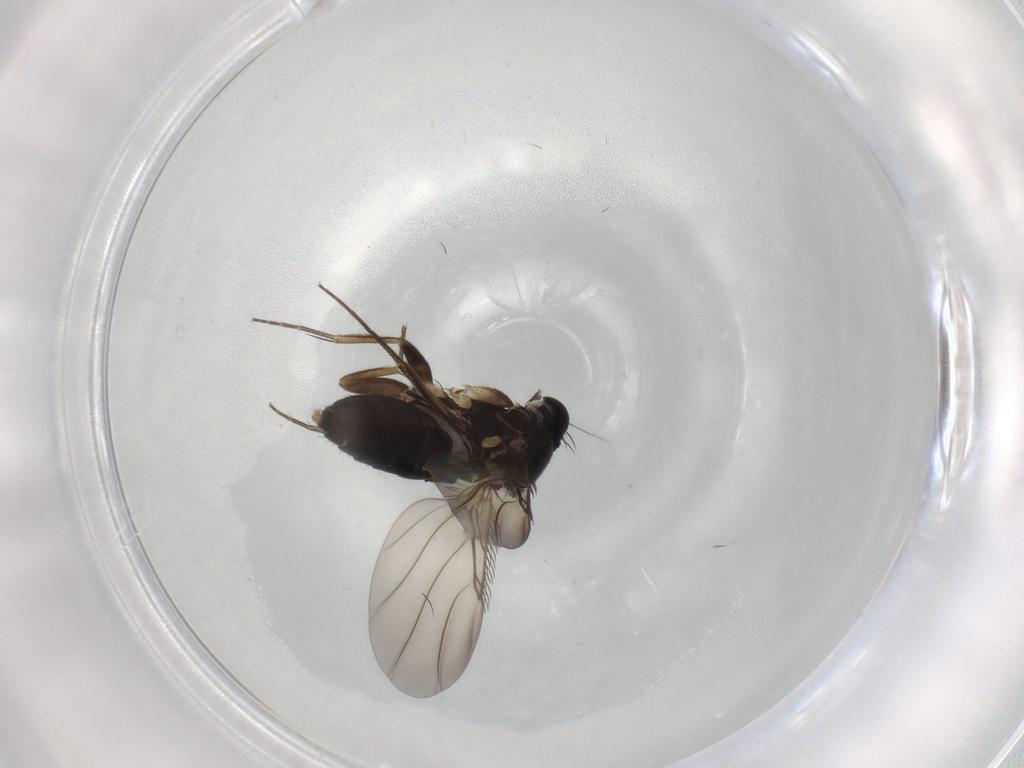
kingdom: Animalia
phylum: Arthropoda
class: Insecta
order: Diptera
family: Phoridae
